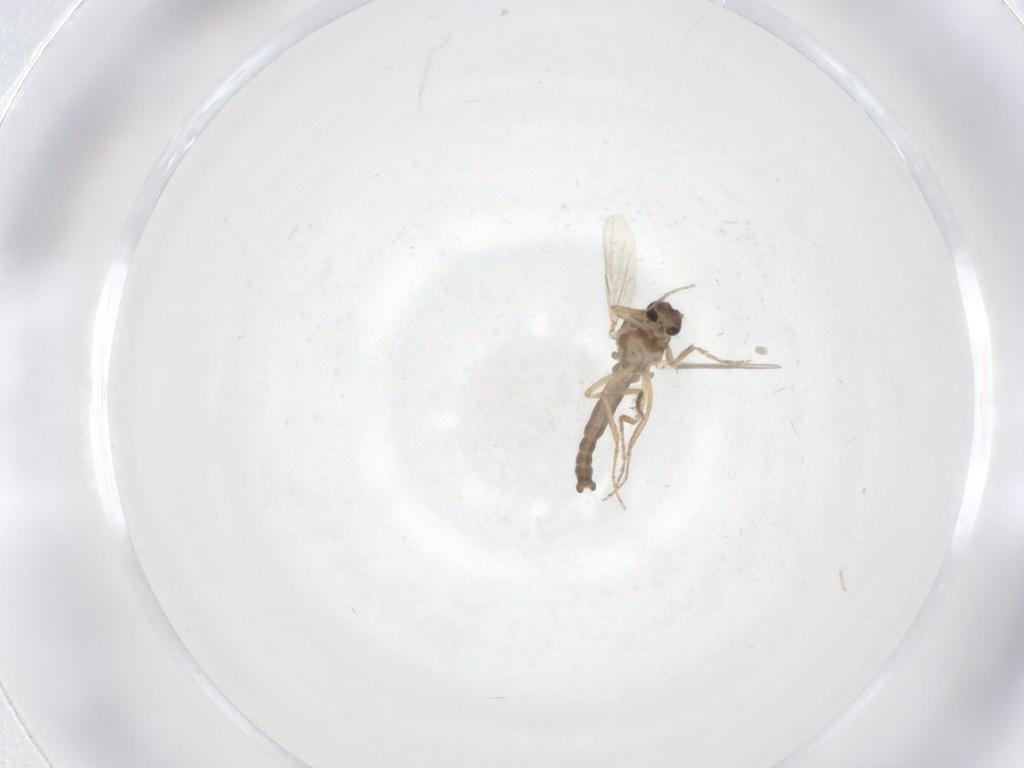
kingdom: Animalia
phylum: Arthropoda
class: Insecta
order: Diptera
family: Ceratopogonidae
